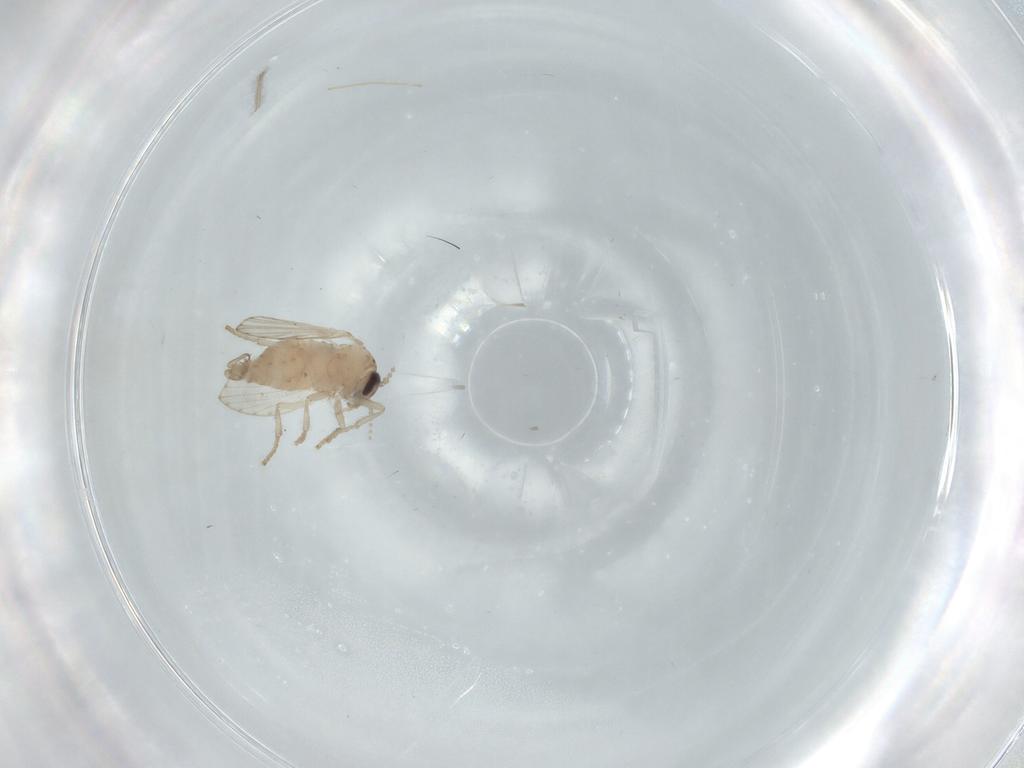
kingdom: Animalia
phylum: Arthropoda
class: Insecta
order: Diptera
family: Psychodidae
